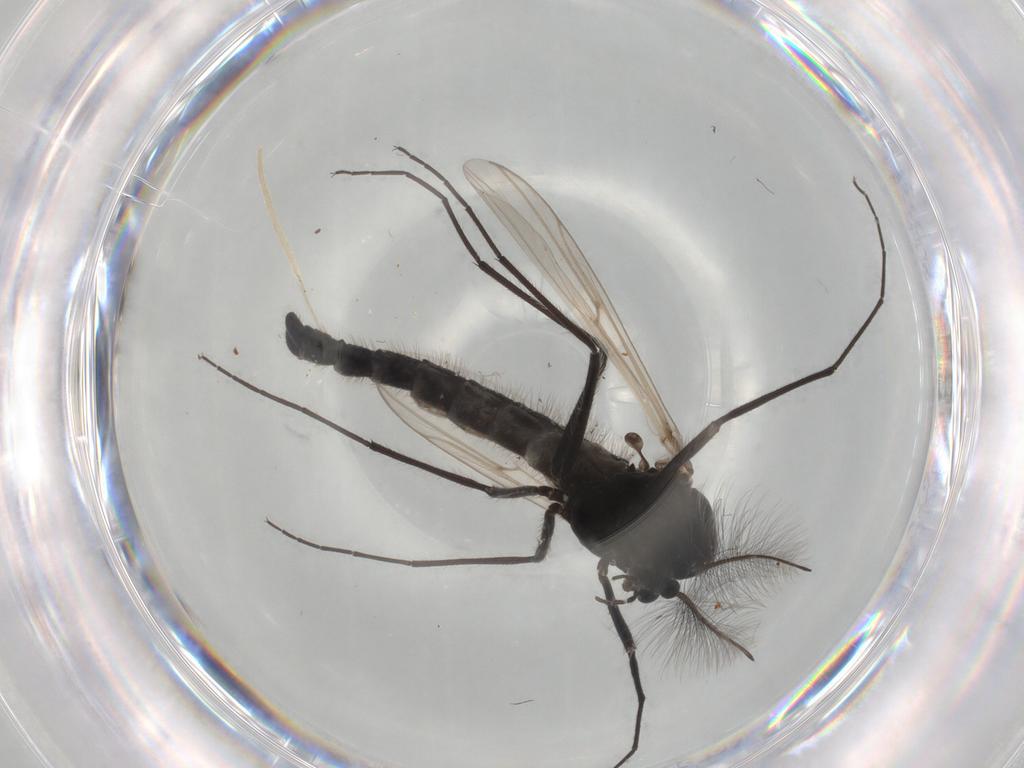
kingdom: Animalia
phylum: Arthropoda
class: Insecta
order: Diptera
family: Chironomidae
